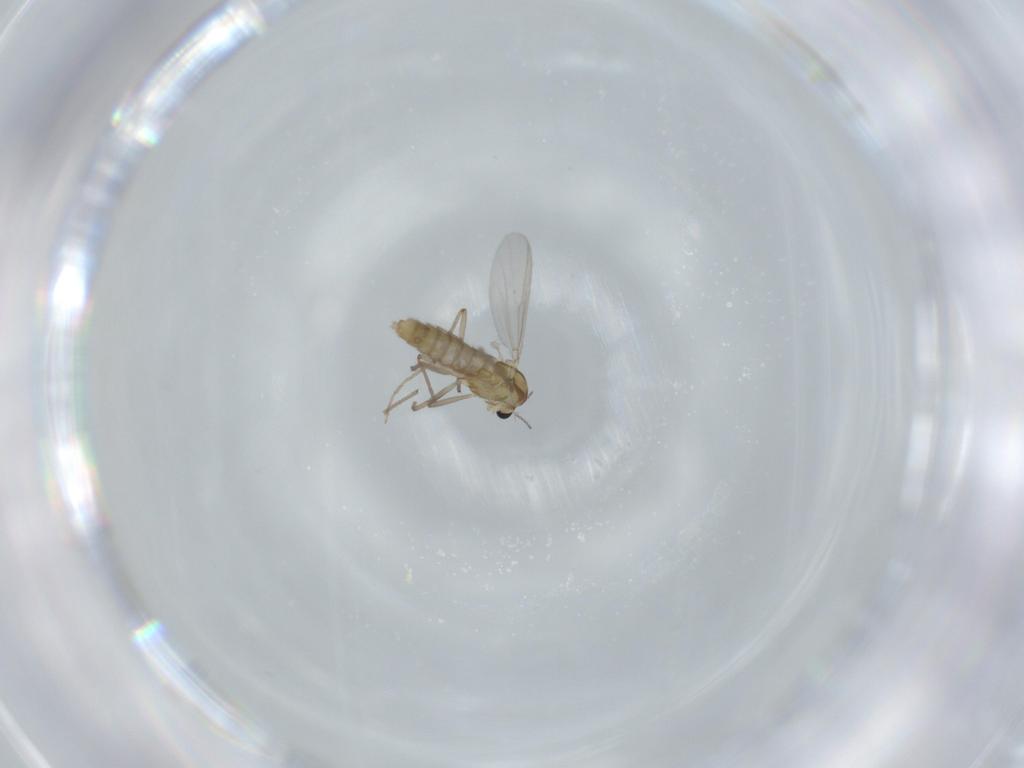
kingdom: Animalia
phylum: Arthropoda
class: Insecta
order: Diptera
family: Chironomidae
